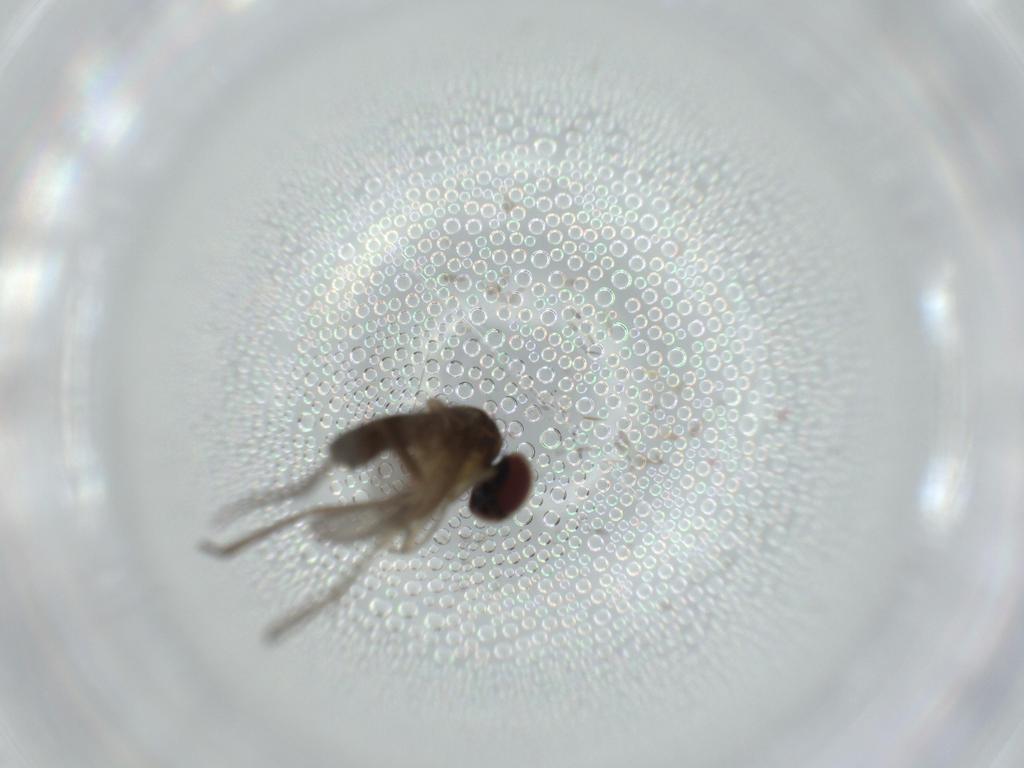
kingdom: Animalia
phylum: Arthropoda
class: Insecta
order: Diptera
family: Dolichopodidae
